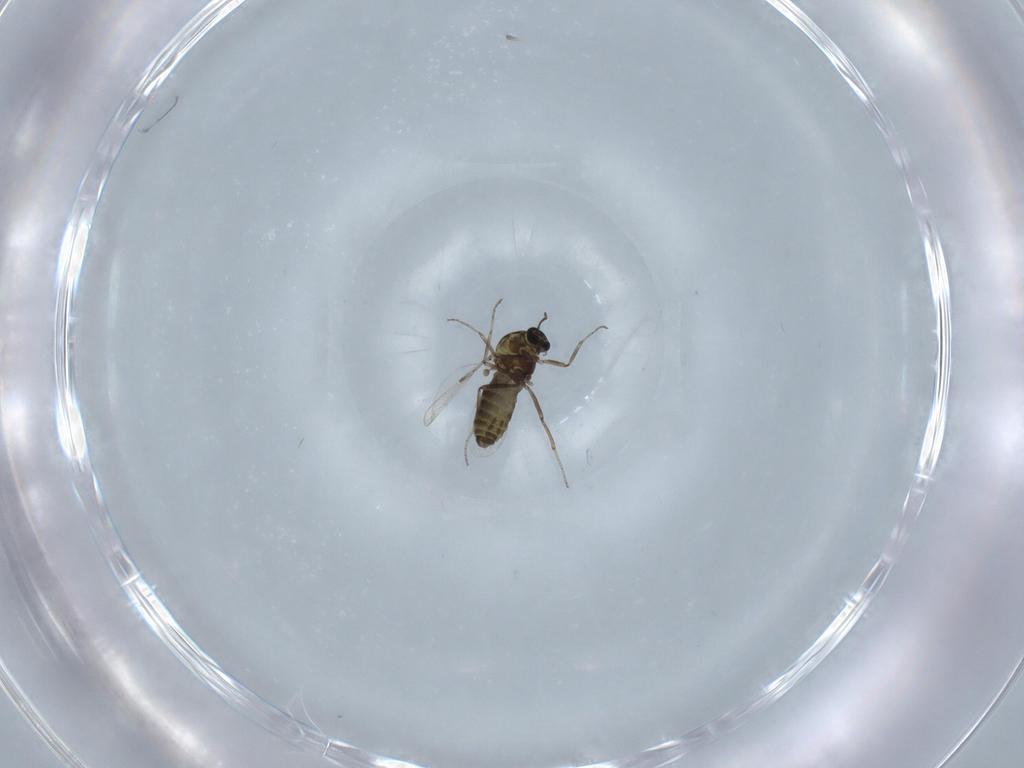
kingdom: Animalia
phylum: Arthropoda
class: Insecta
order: Diptera
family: Ceratopogonidae
